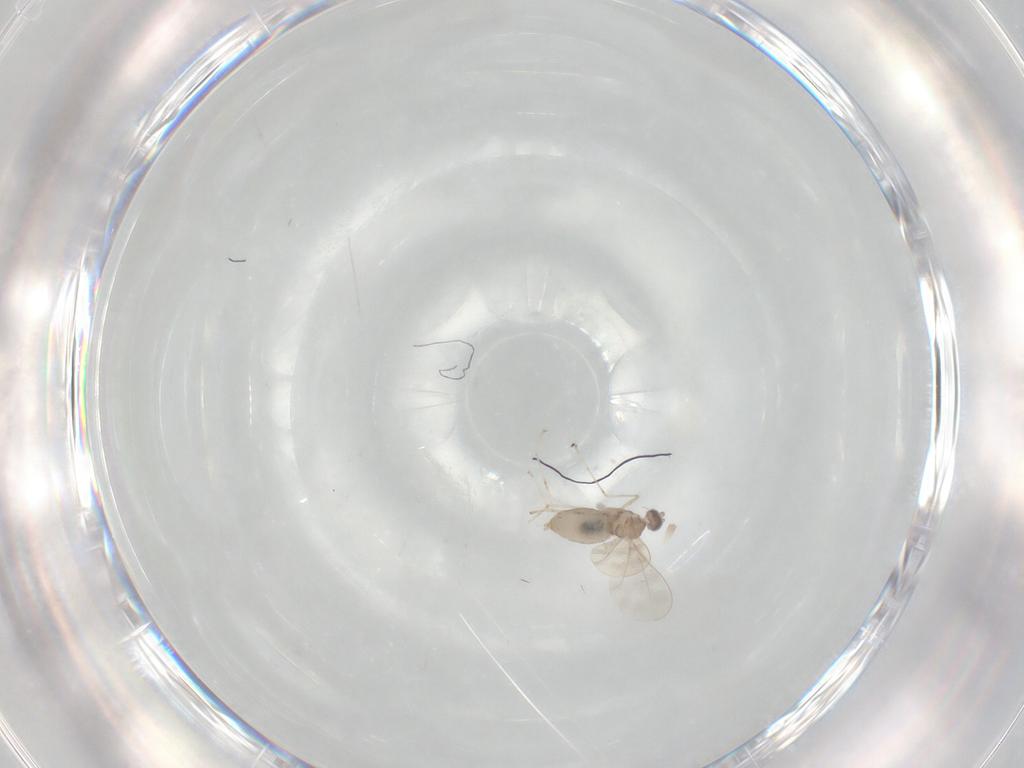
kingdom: Animalia
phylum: Arthropoda
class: Insecta
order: Diptera
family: Cecidomyiidae
